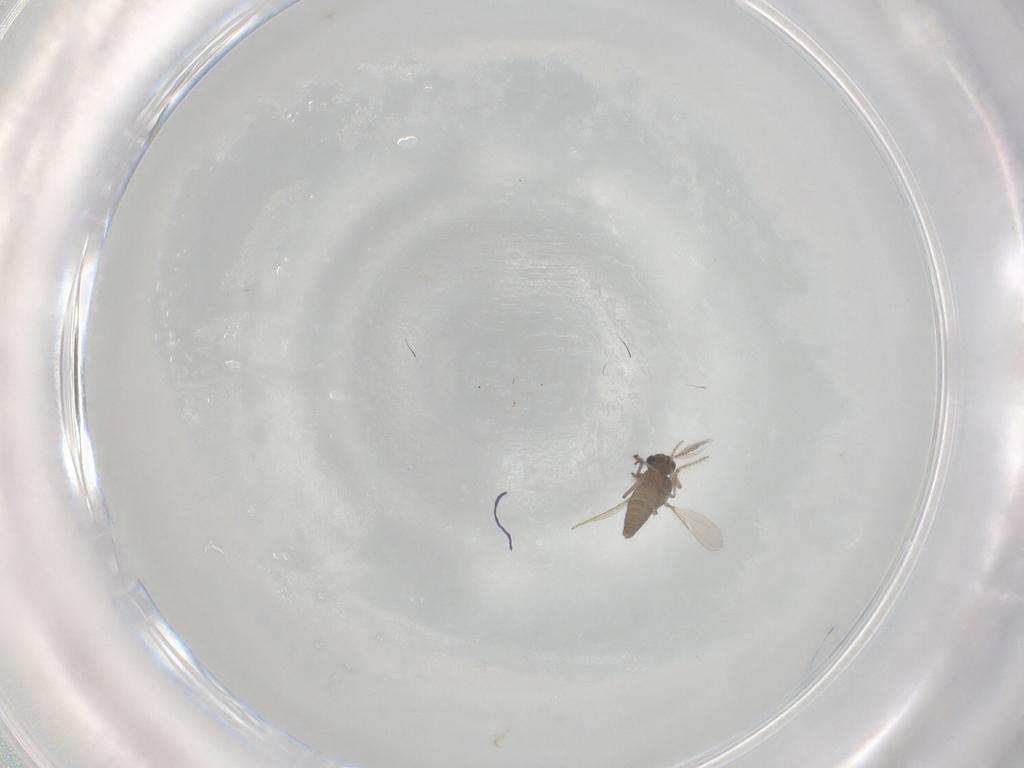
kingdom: Animalia
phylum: Arthropoda
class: Insecta
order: Diptera
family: Ceratopogonidae
